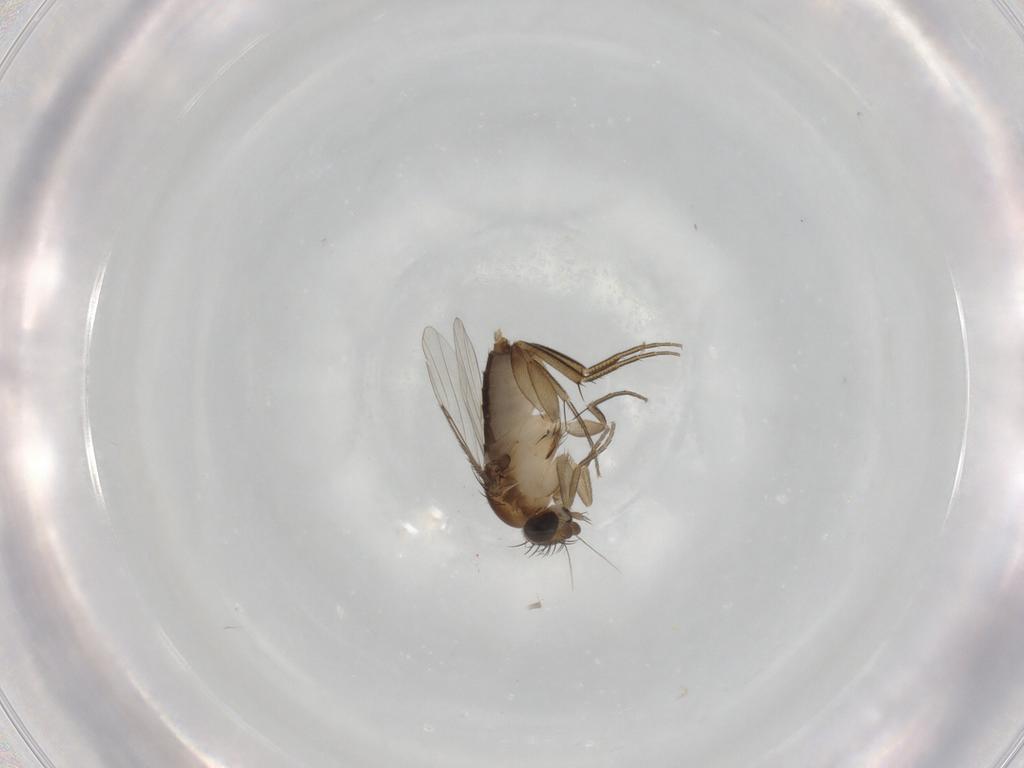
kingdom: Animalia
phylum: Arthropoda
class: Insecta
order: Diptera
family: Phoridae
